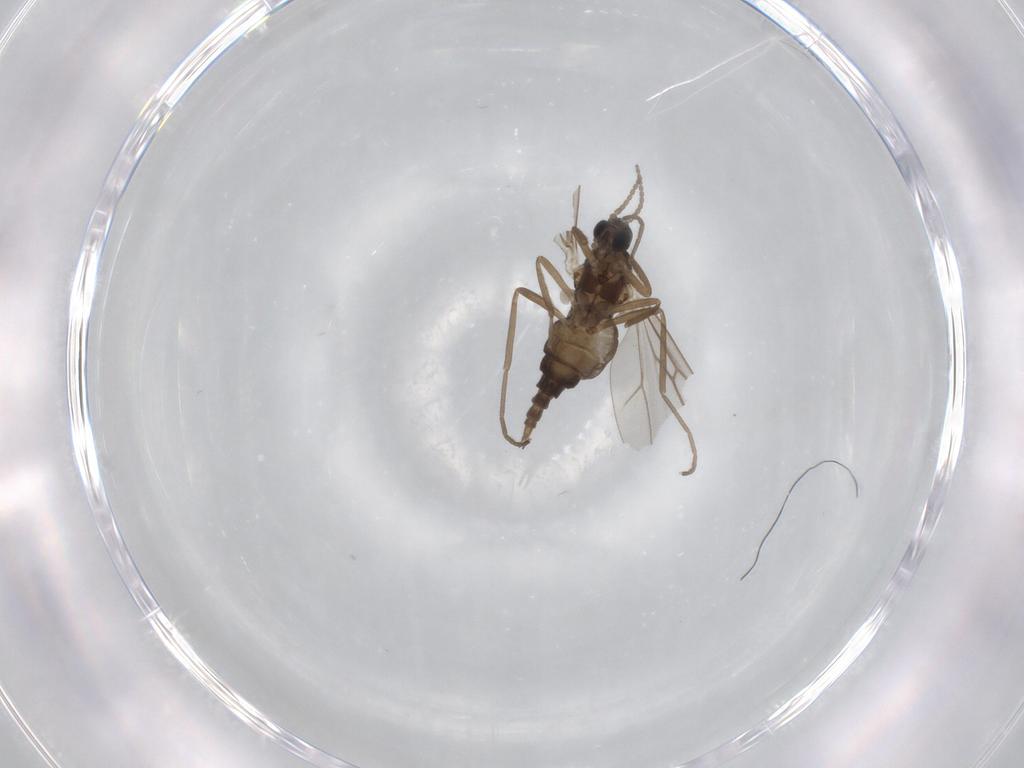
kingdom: Animalia
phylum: Arthropoda
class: Insecta
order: Diptera
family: Cecidomyiidae
